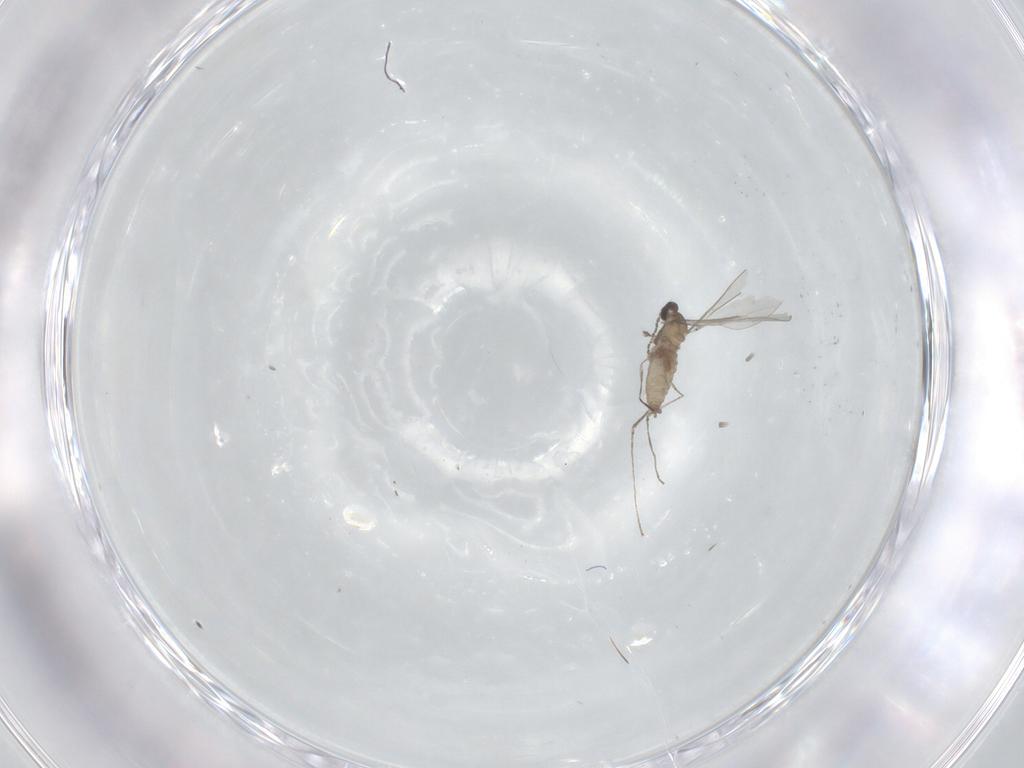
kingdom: Animalia
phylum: Arthropoda
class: Insecta
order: Diptera
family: Cecidomyiidae
